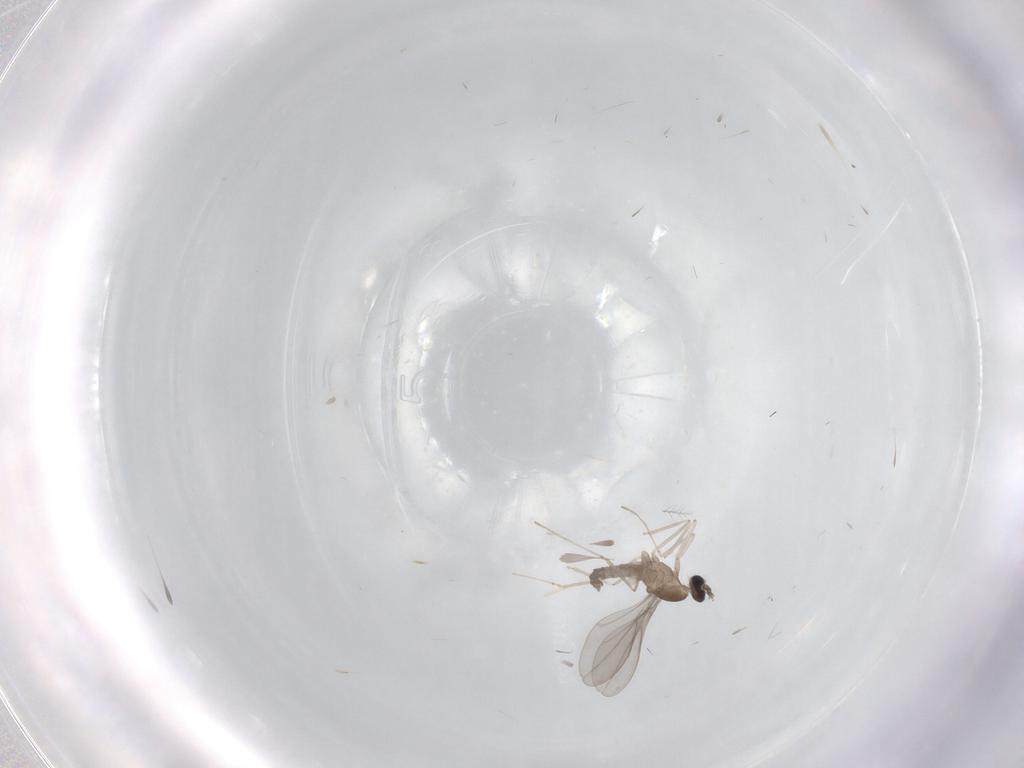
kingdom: Animalia
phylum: Arthropoda
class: Insecta
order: Diptera
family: Cecidomyiidae
